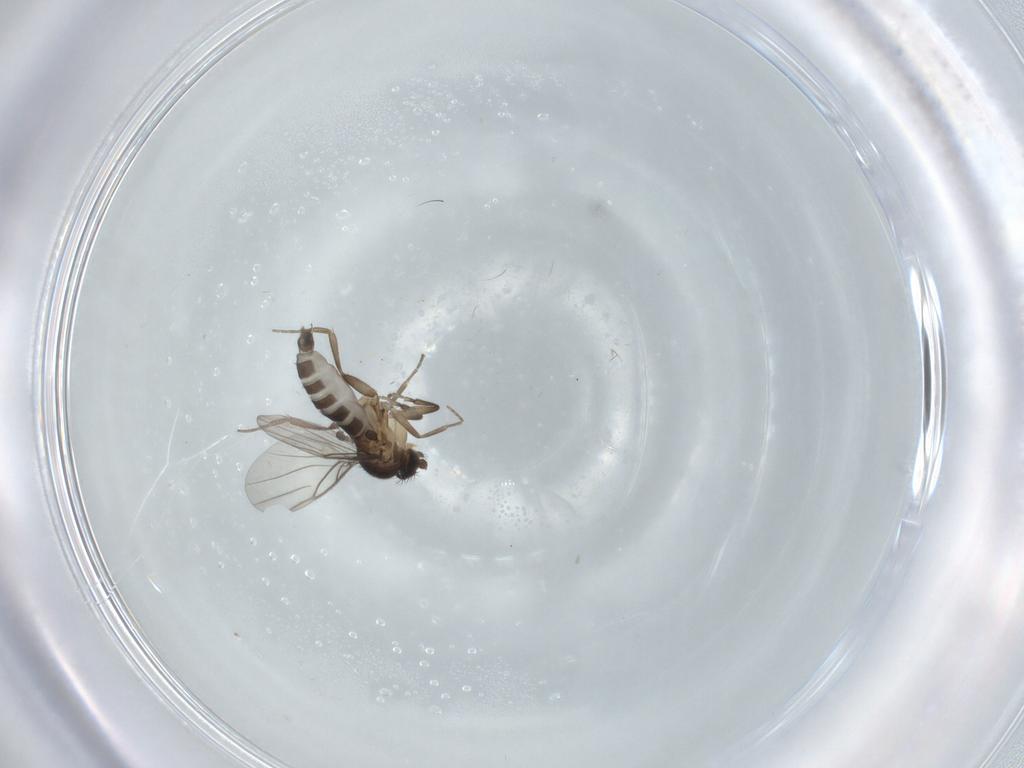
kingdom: Animalia
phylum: Arthropoda
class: Insecta
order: Diptera
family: Phoridae
